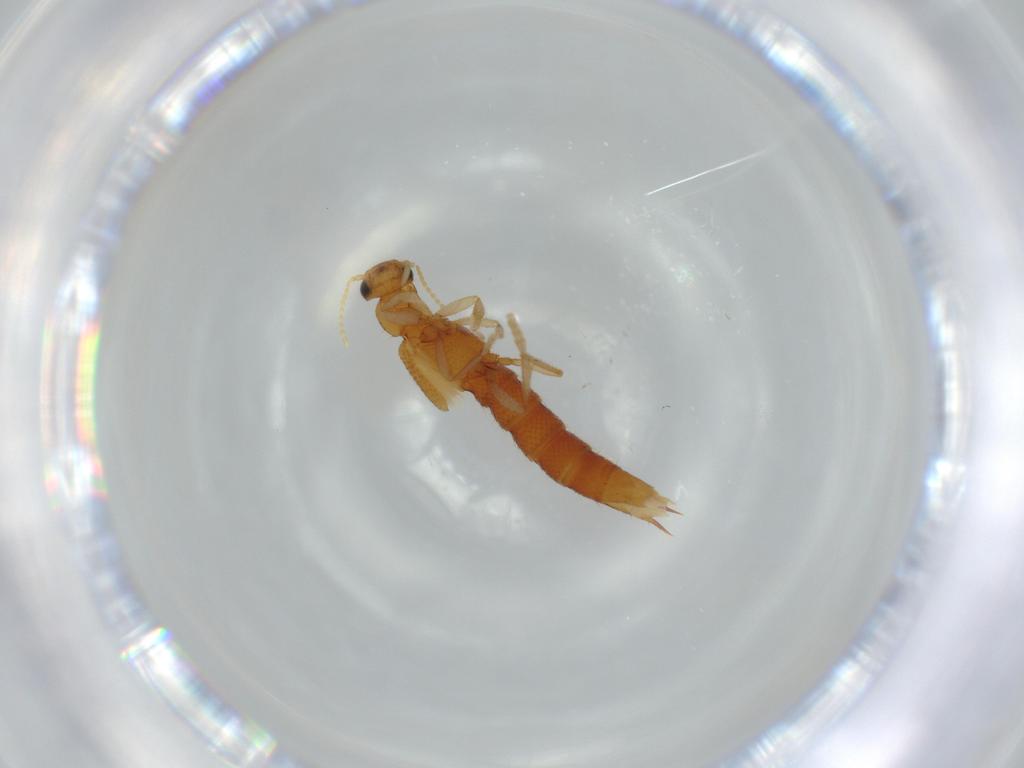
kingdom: Animalia
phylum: Arthropoda
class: Insecta
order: Coleoptera
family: Staphylinidae
